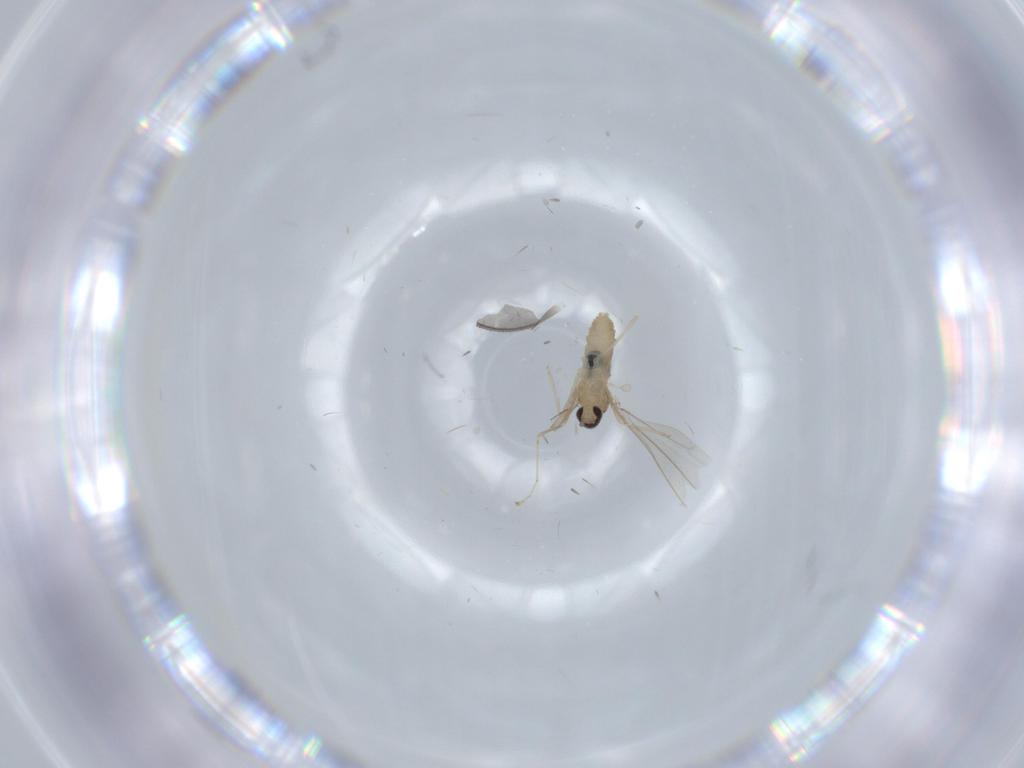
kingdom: Animalia
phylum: Arthropoda
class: Insecta
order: Diptera
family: Cecidomyiidae
